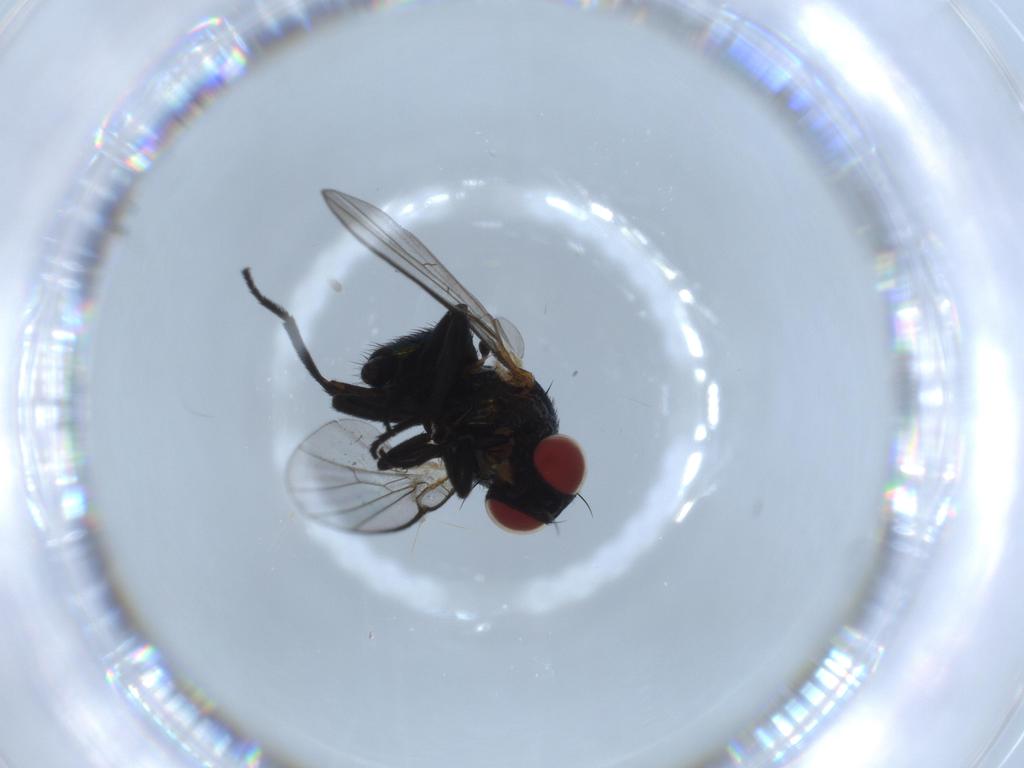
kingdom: Animalia
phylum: Arthropoda
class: Insecta
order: Diptera
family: Agromyzidae
